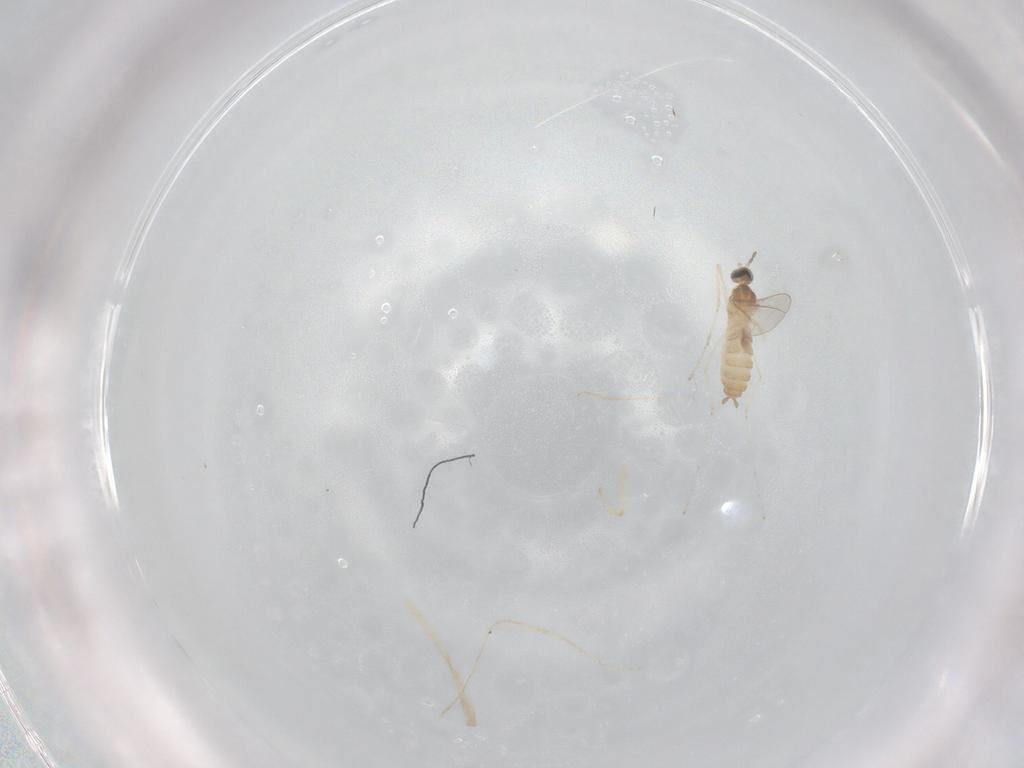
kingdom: Animalia
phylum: Arthropoda
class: Insecta
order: Diptera
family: Cecidomyiidae
